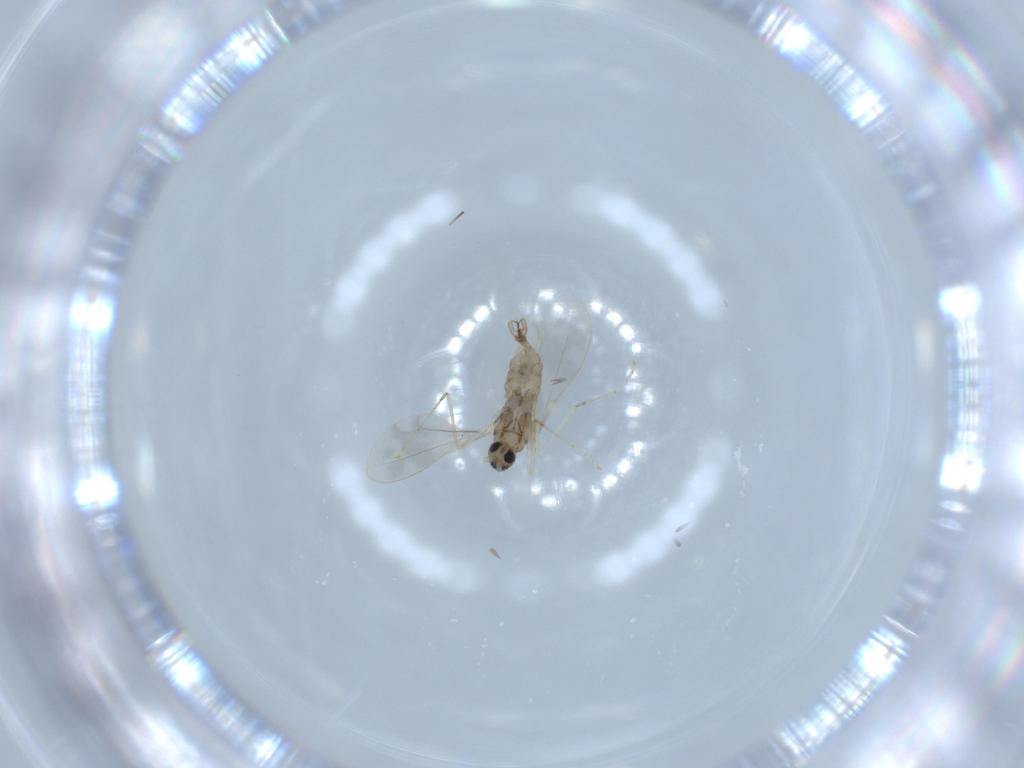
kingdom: Animalia
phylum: Arthropoda
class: Insecta
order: Diptera
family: Cecidomyiidae
